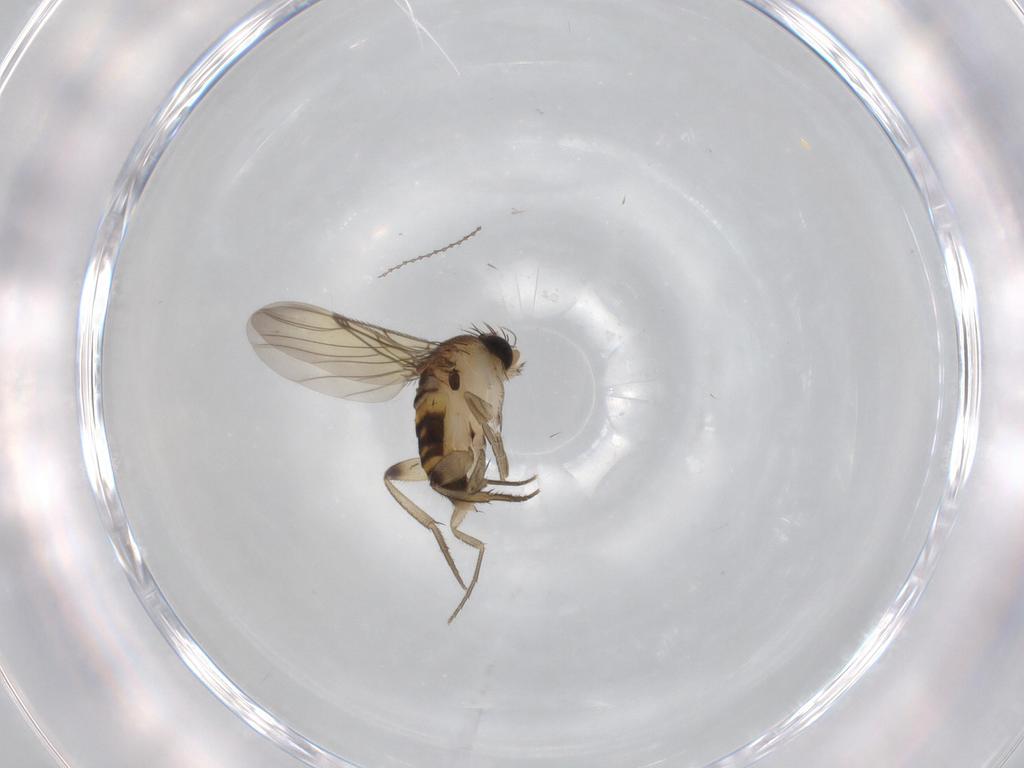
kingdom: Animalia
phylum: Arthropoda
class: Insecta
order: Diptera
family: Phoridae
